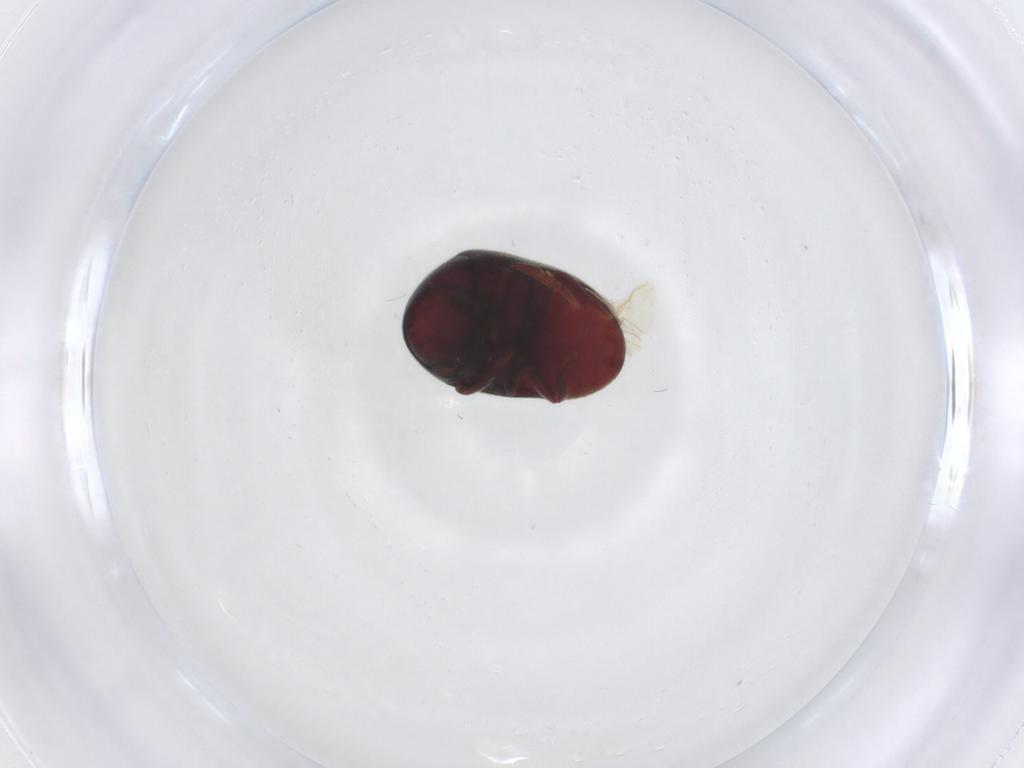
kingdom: Animalia
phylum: Arthropoda
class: Insecta
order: Coleoptera
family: Ptinidae
